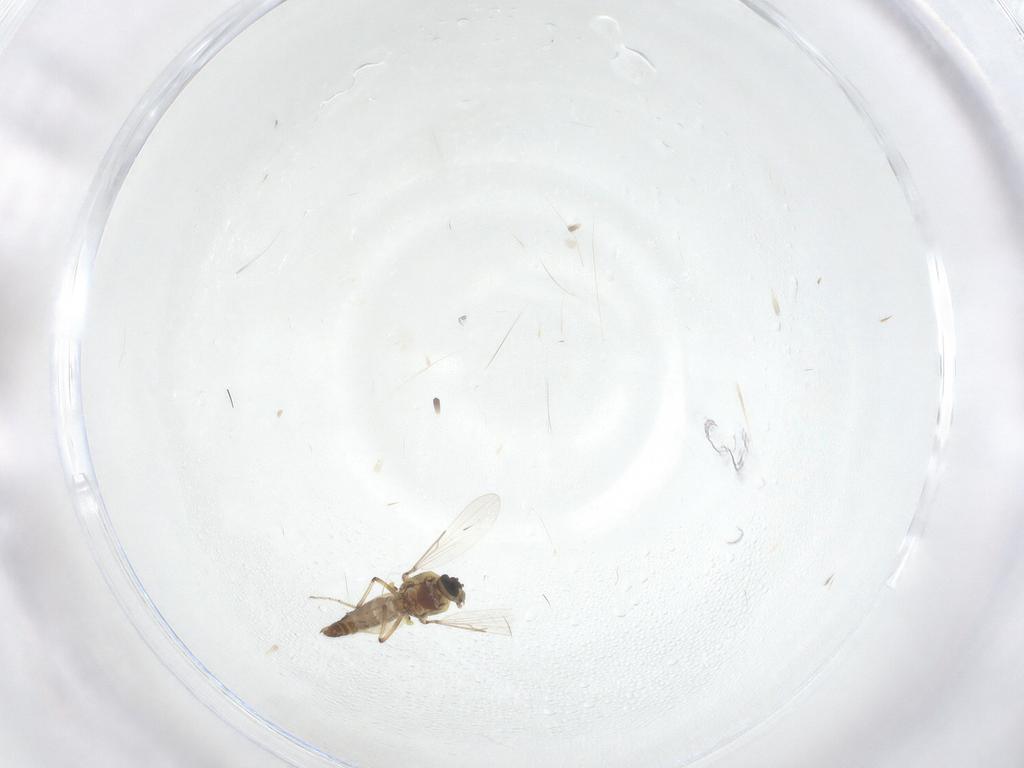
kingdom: Animalia
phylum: Arthropoda
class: Insecta
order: Diptera
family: Ceratopogonidae
